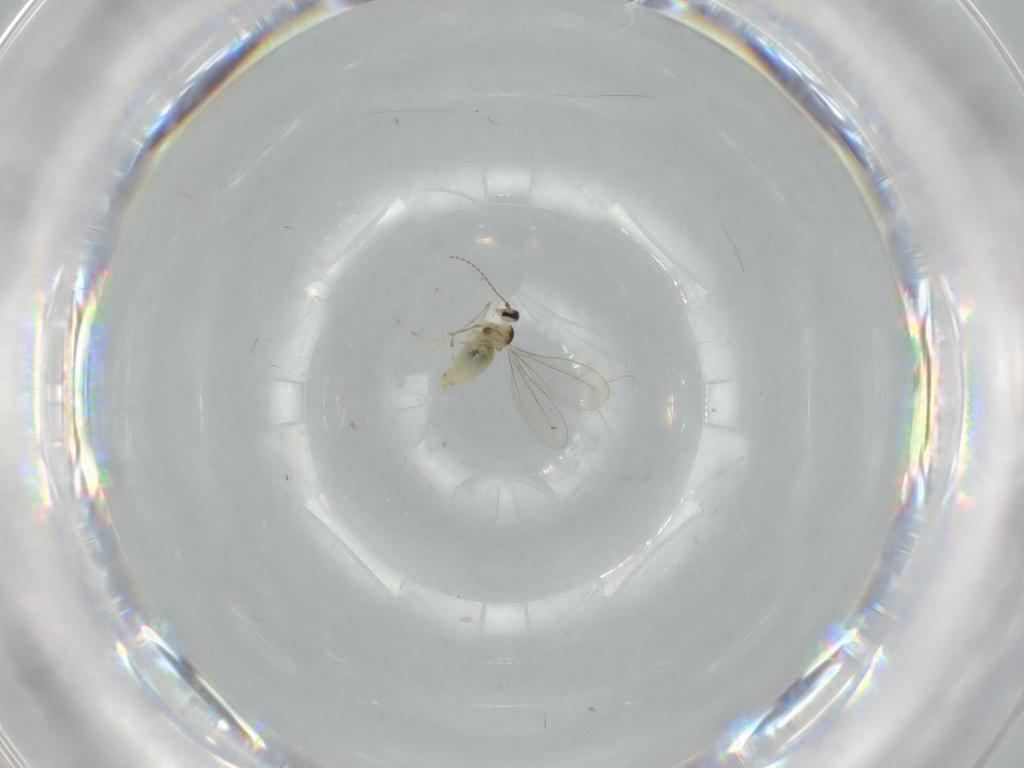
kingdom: Animalia
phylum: Arthropoda
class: Insecta
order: Diptera
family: Cecidomyiidae
